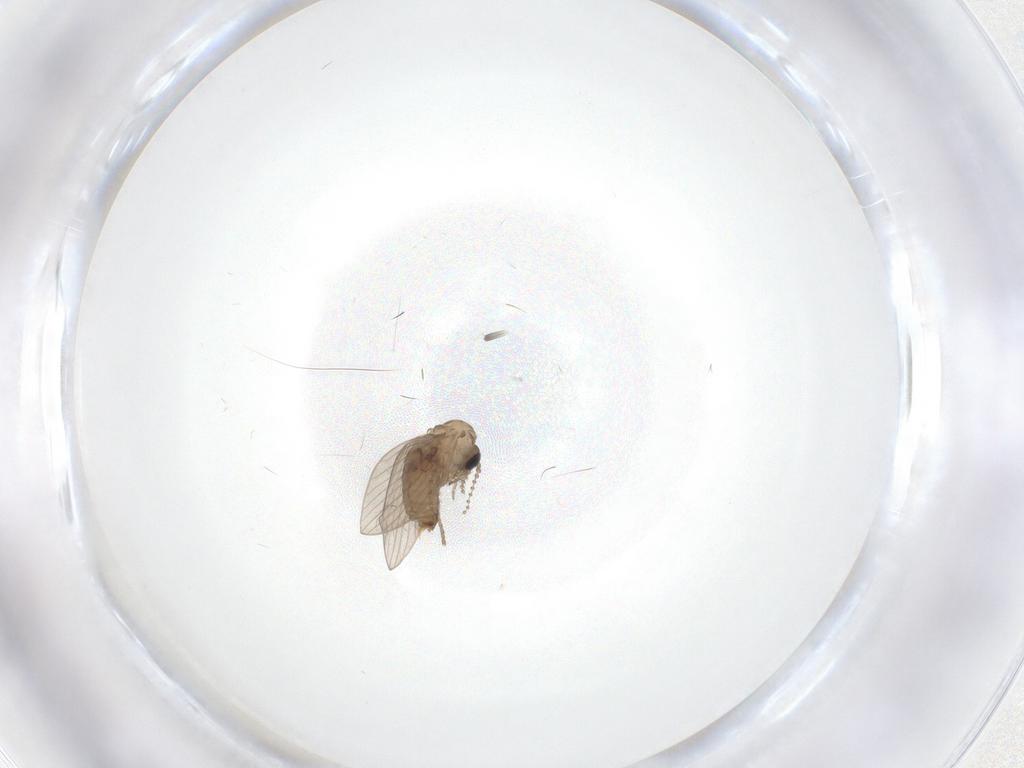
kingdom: Animalia
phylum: Arthropoda
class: Insecta
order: Diptera
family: Psychodidae
